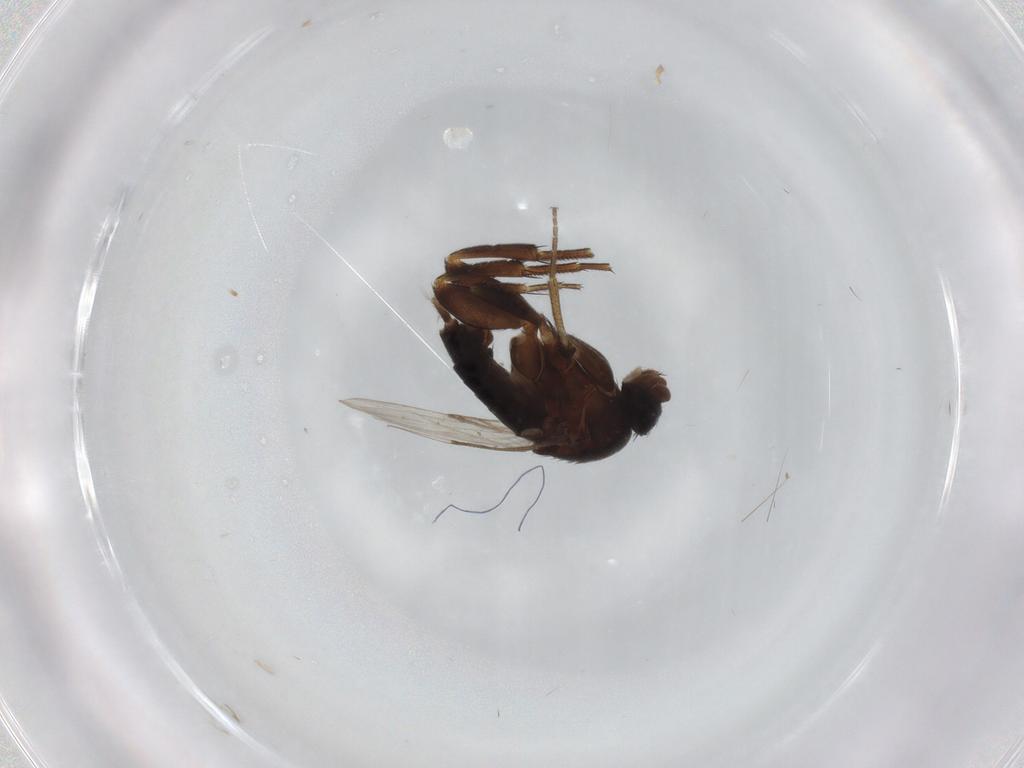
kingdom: Animalia
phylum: Arthropoda
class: Insecta
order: Diptera
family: Phoridae
